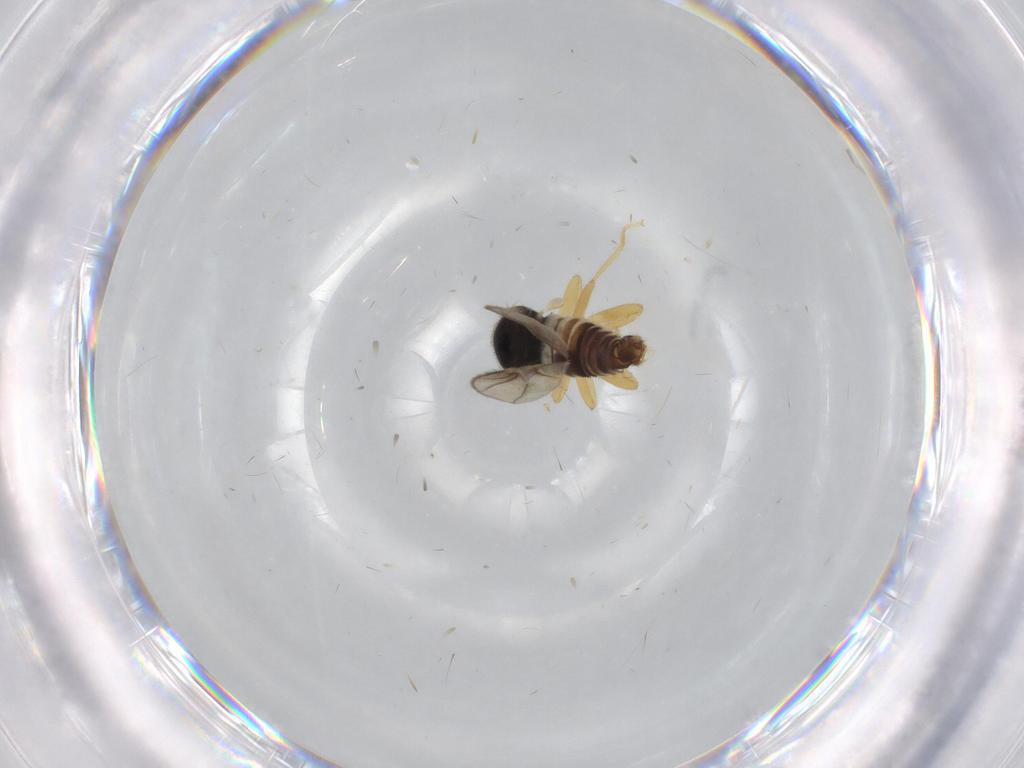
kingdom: Animalia
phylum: Arthropoda
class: Insecta
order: Diptera
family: Hybotidae
